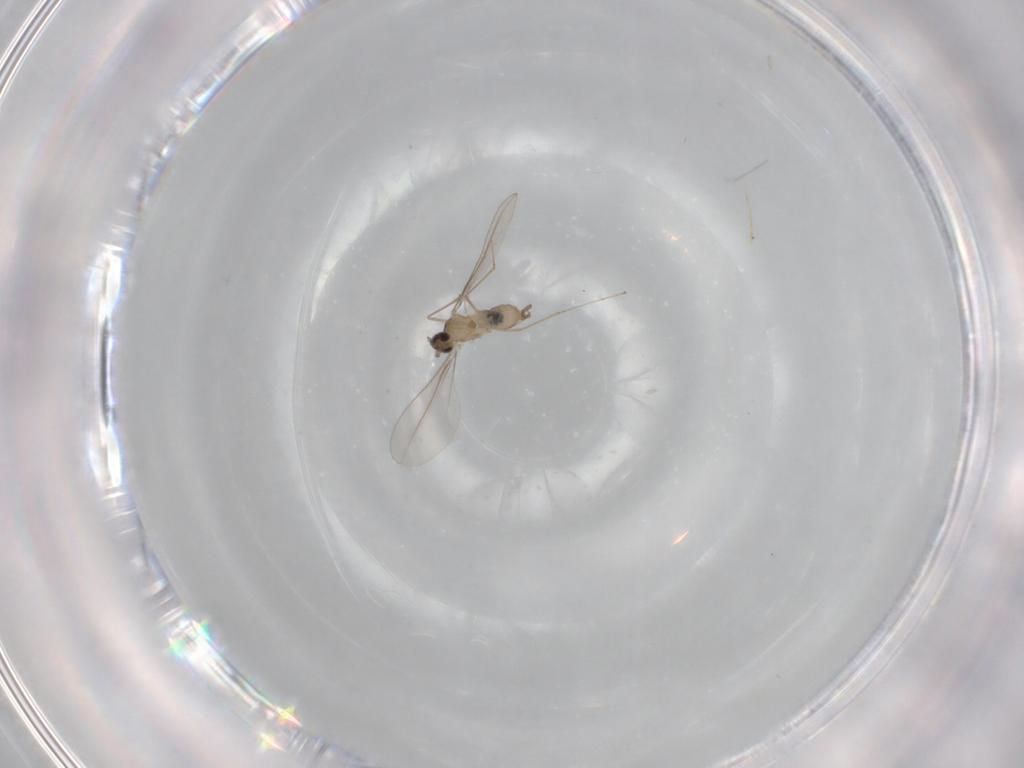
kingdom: Animalia
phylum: Arthropoda
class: Insecta
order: Diptera
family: Cecidomyiidae
